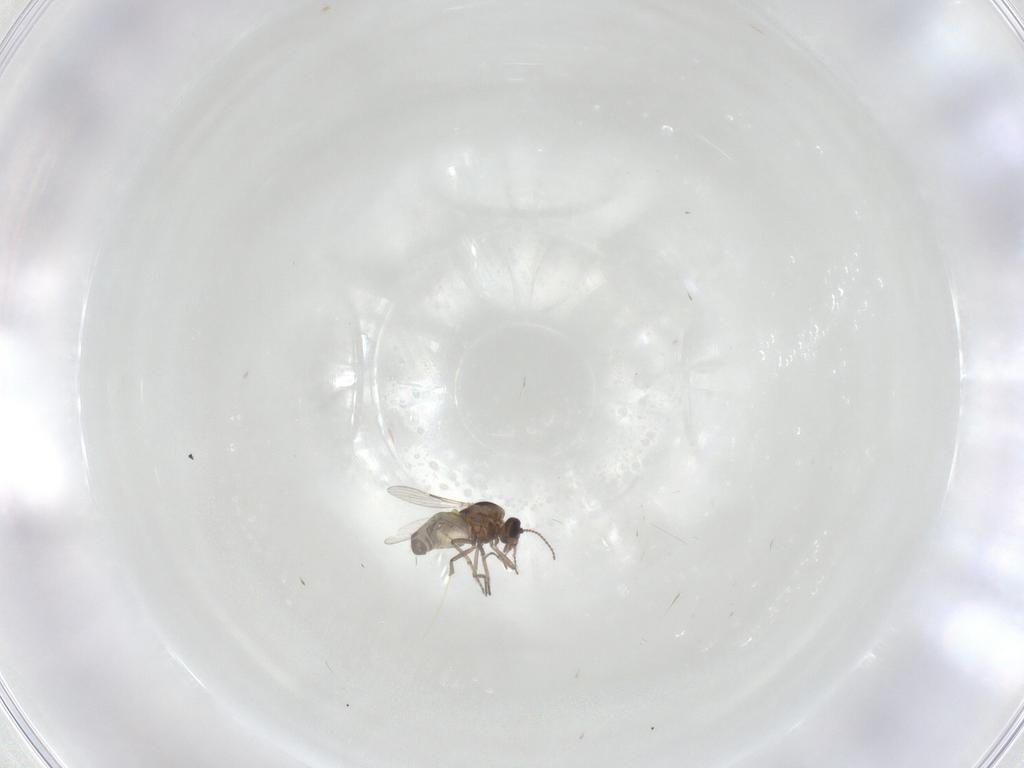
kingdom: Animalia
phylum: Arthropoda
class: Insecta
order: Diptera
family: Ceratopogonidae
